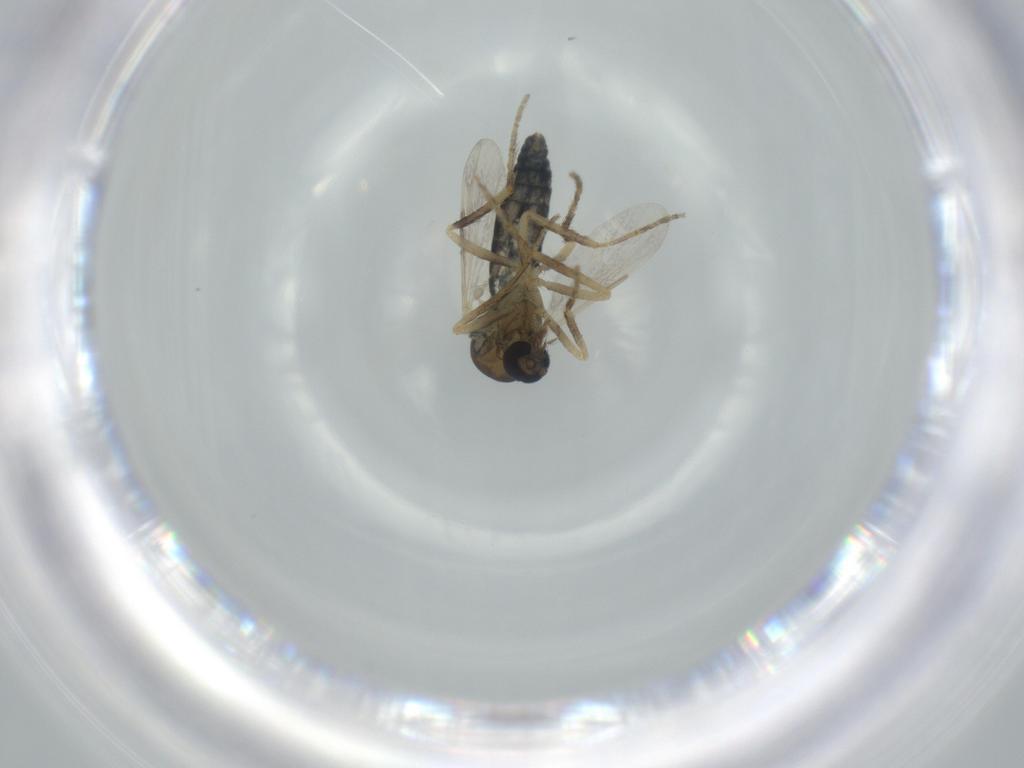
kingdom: Animalia
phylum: Arthropoda
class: Insecta
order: Diptera
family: Ceratopogonidae
